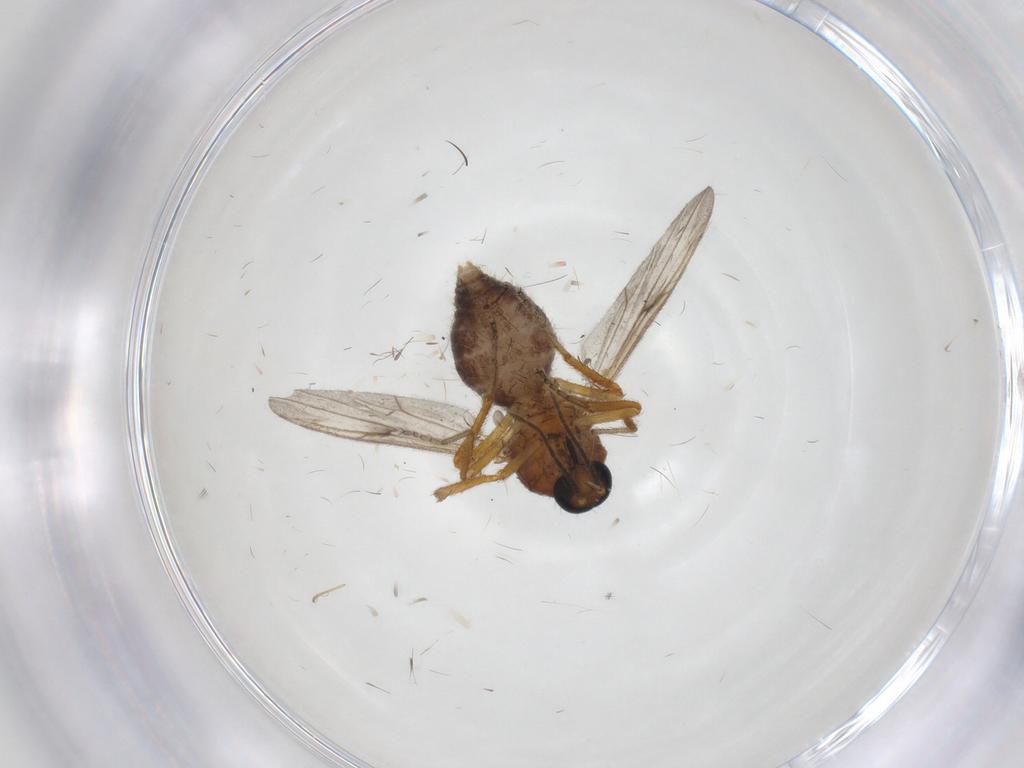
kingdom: Animalia
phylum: Arthropoda
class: Insecta
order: Diptera
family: Ceratopogonidae
